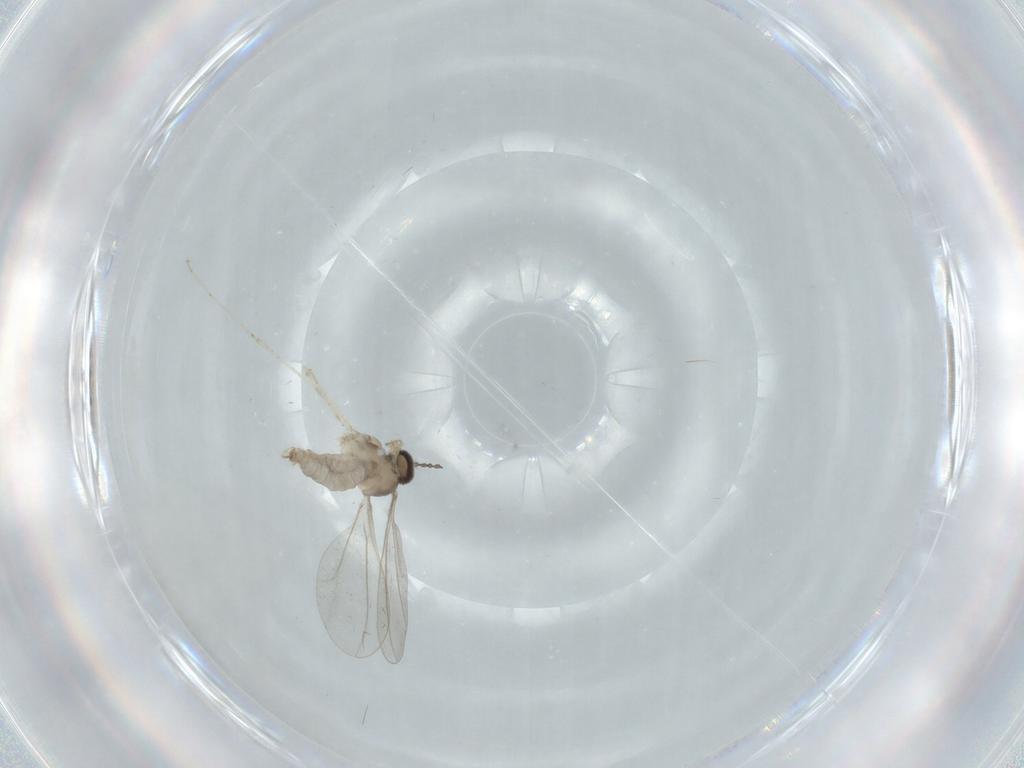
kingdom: Animalia
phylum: Arthropoda
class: Insecta
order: Diptera
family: Cecidomyiidae
